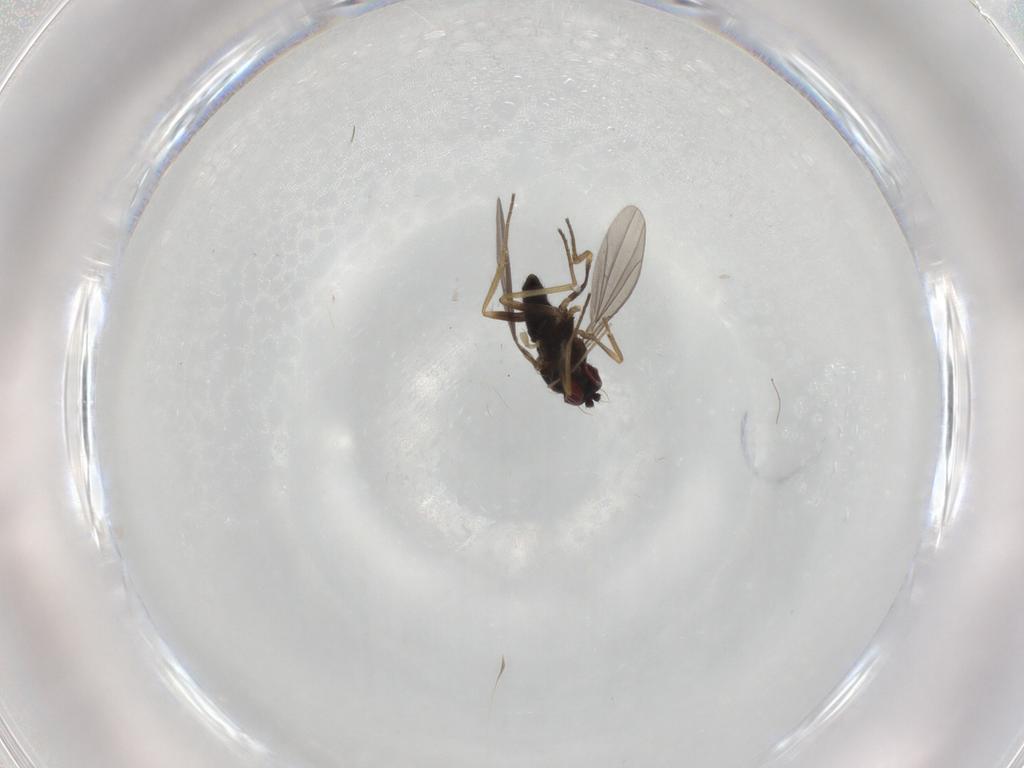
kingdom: Animalia
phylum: Arthropoda
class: Insecta
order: Diptera
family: Chironomidae
